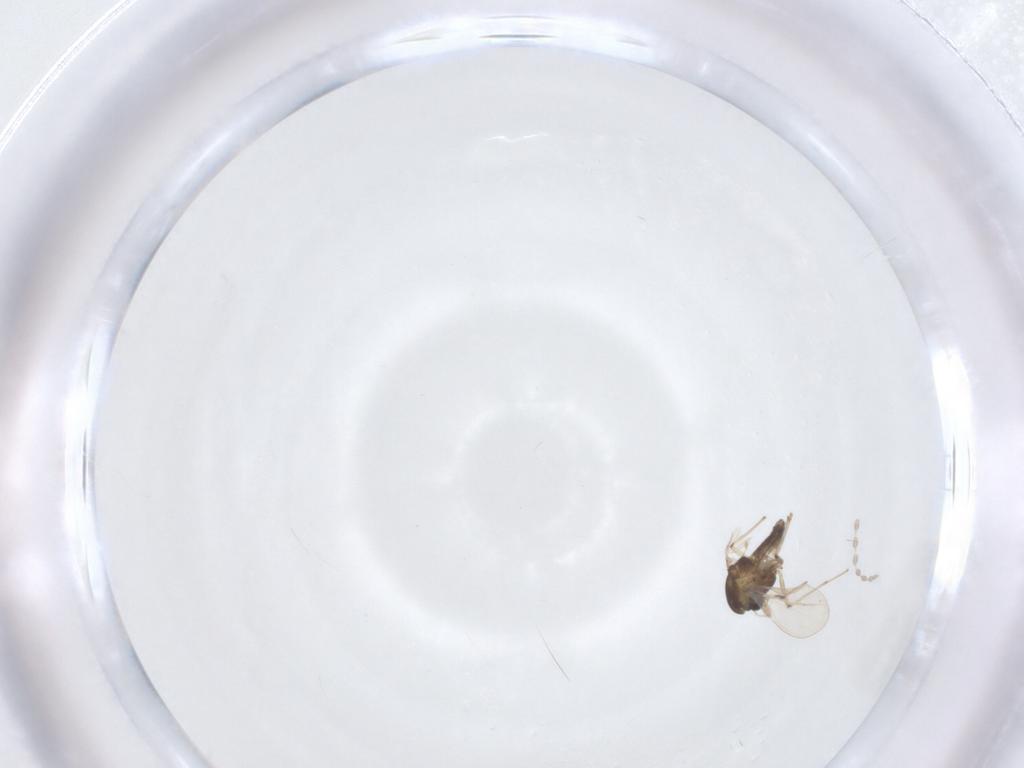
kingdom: Animalia
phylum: Arthropoda
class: Insecta
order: Diptera
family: Chironomidae
